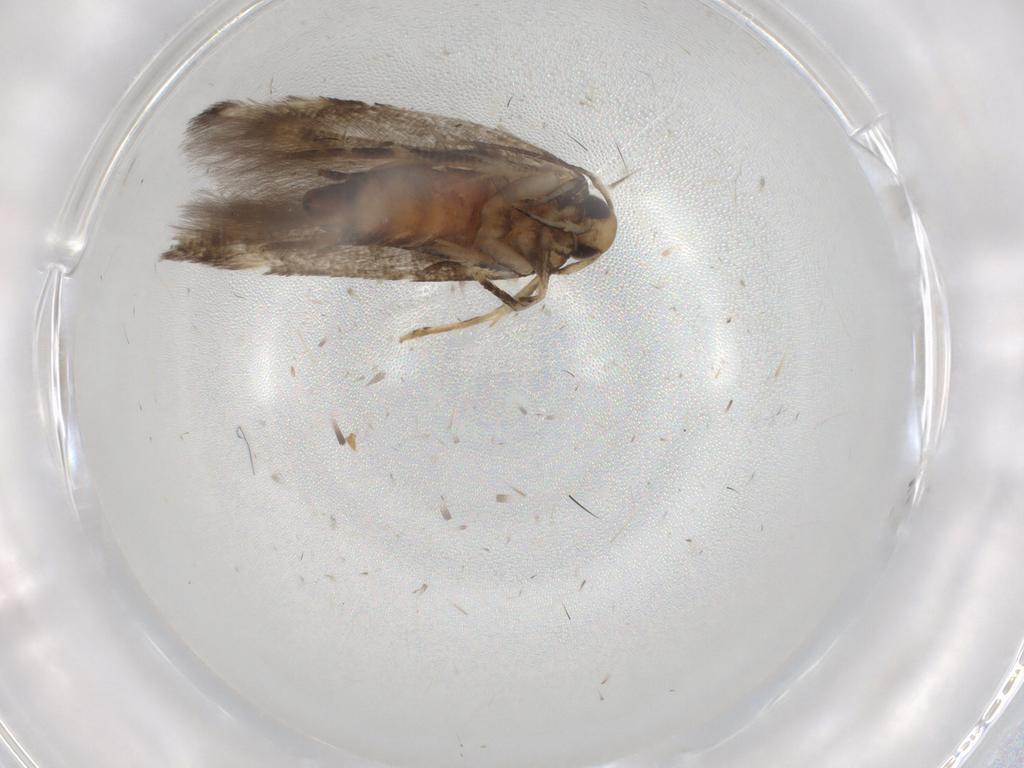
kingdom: Animalia
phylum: Arthropoda
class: Insecta
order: Lepidoptera
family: Plutellidae
